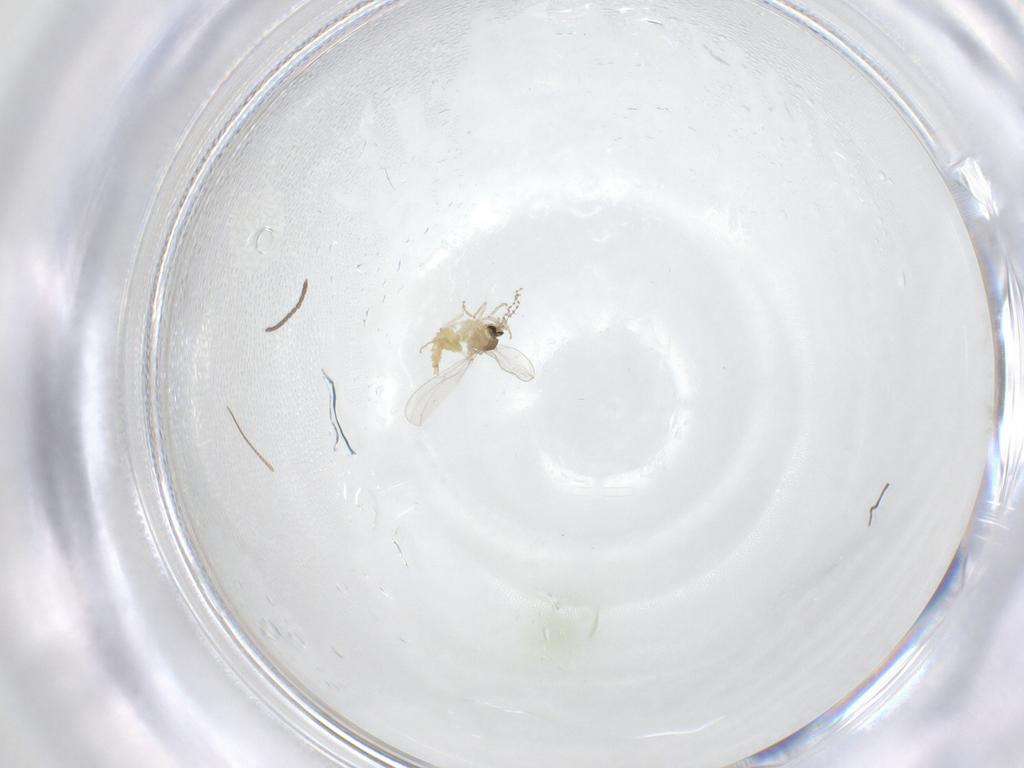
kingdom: Animalia
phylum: Arthropoda
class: Insecta
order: Diptera
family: Cecidomyiidae
